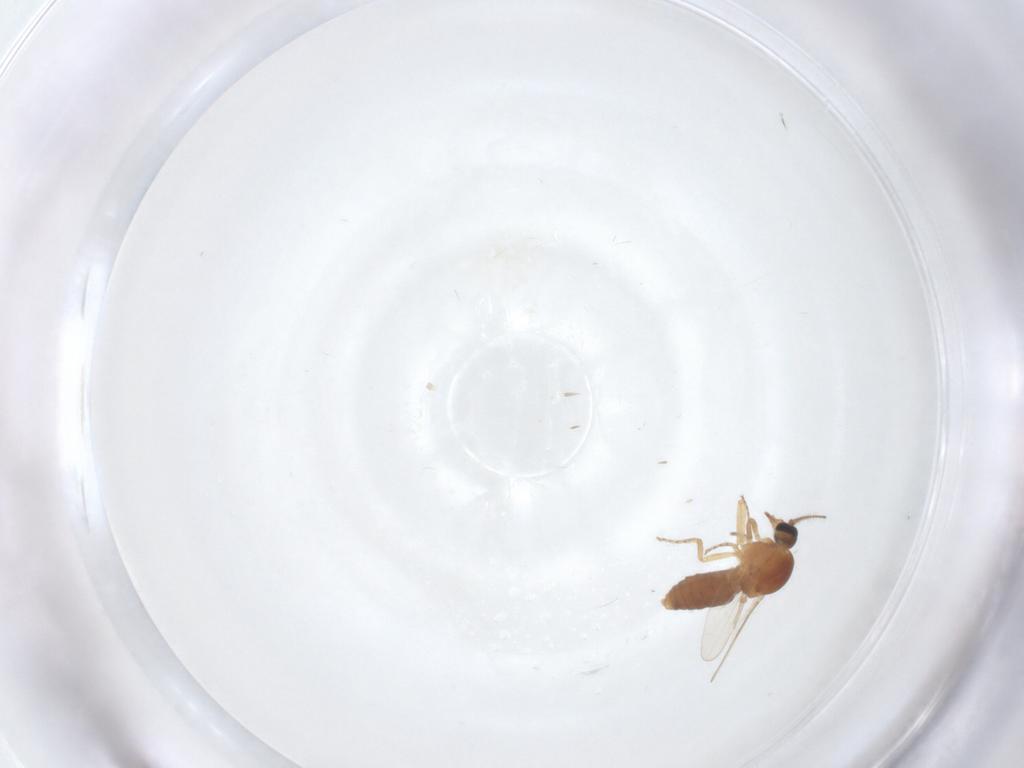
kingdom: Animalia
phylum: Arthropoda
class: Insecta
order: Diptera
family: Ceratopogonidae
